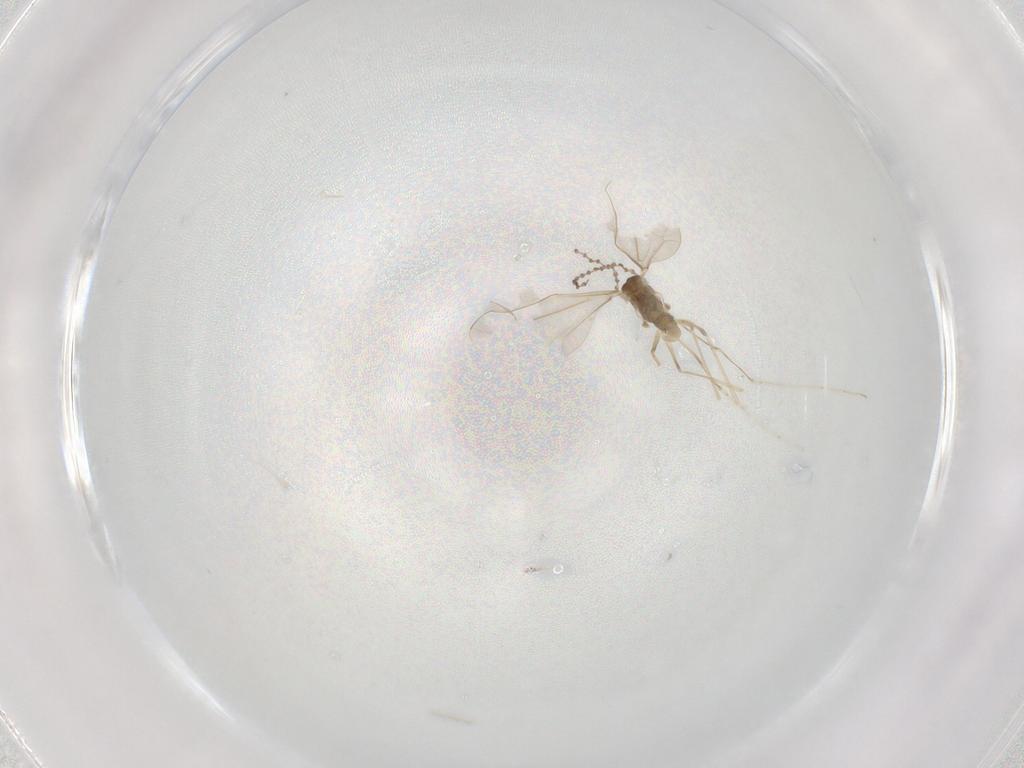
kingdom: Animalia
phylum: Arthropoda
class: Insecta
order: Diptera
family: Cecidomyiidae
